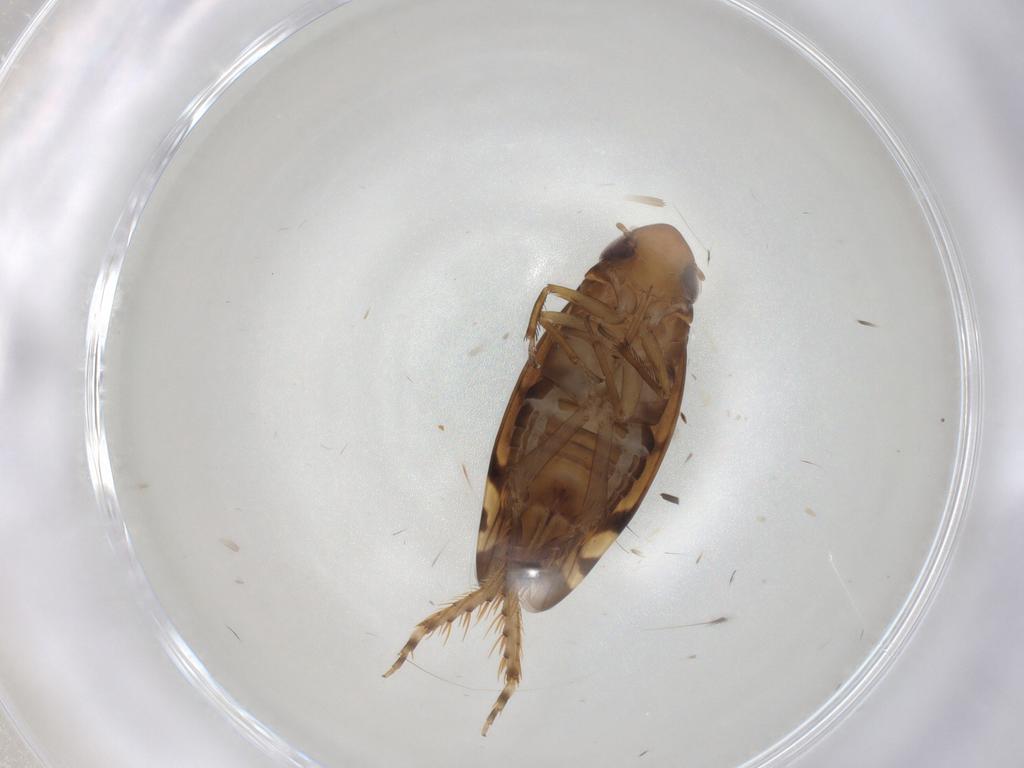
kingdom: Animalia
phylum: Arthropoda
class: Insecta
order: Hemiptera
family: Cicadellidae
